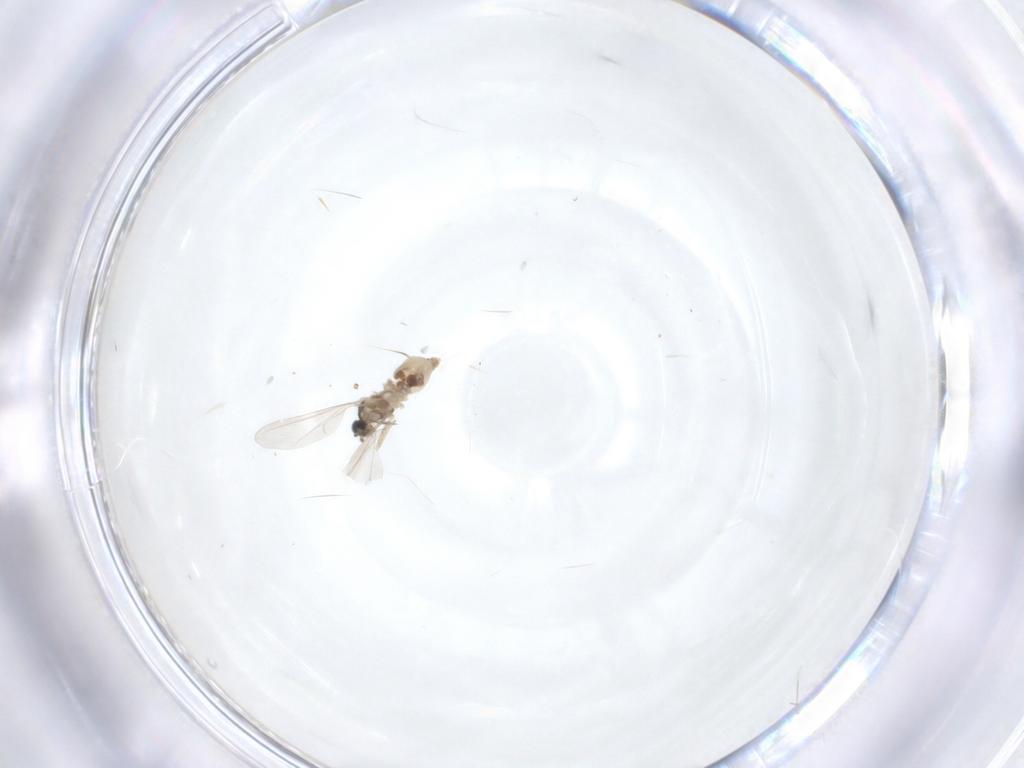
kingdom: Animalia
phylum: Arthropoda
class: Insecta
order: Diptera
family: Cecidomyiidae
